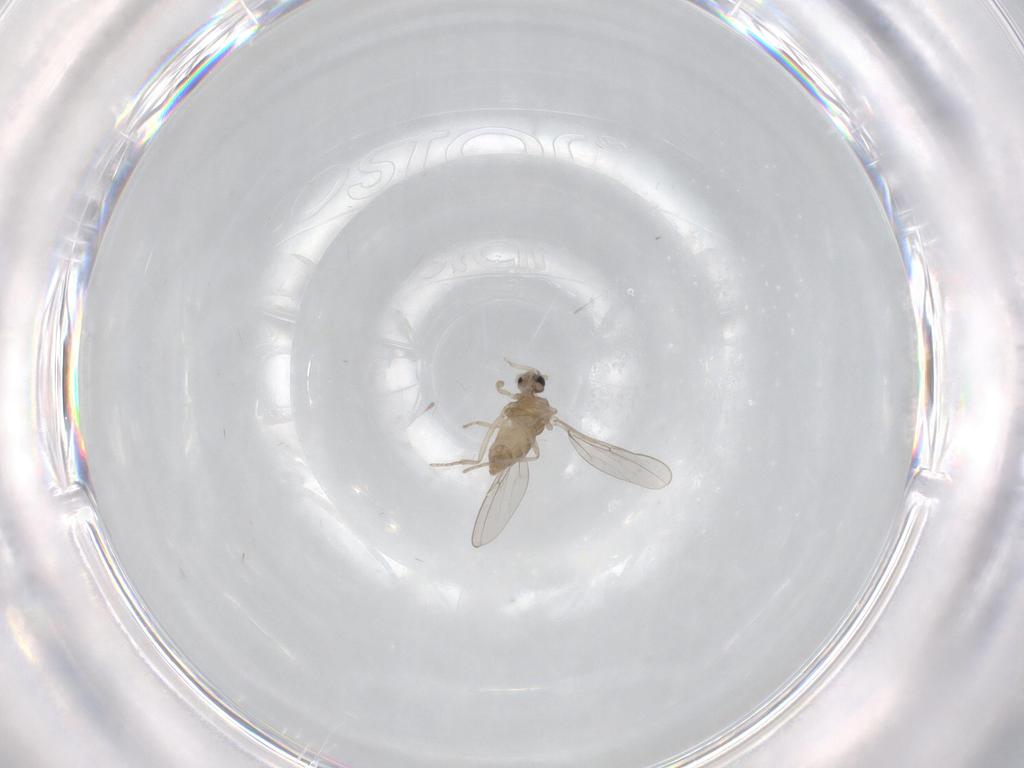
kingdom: Animalia
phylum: Arthropoda
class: Insecta
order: Diptera
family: Cecidomyiidae
